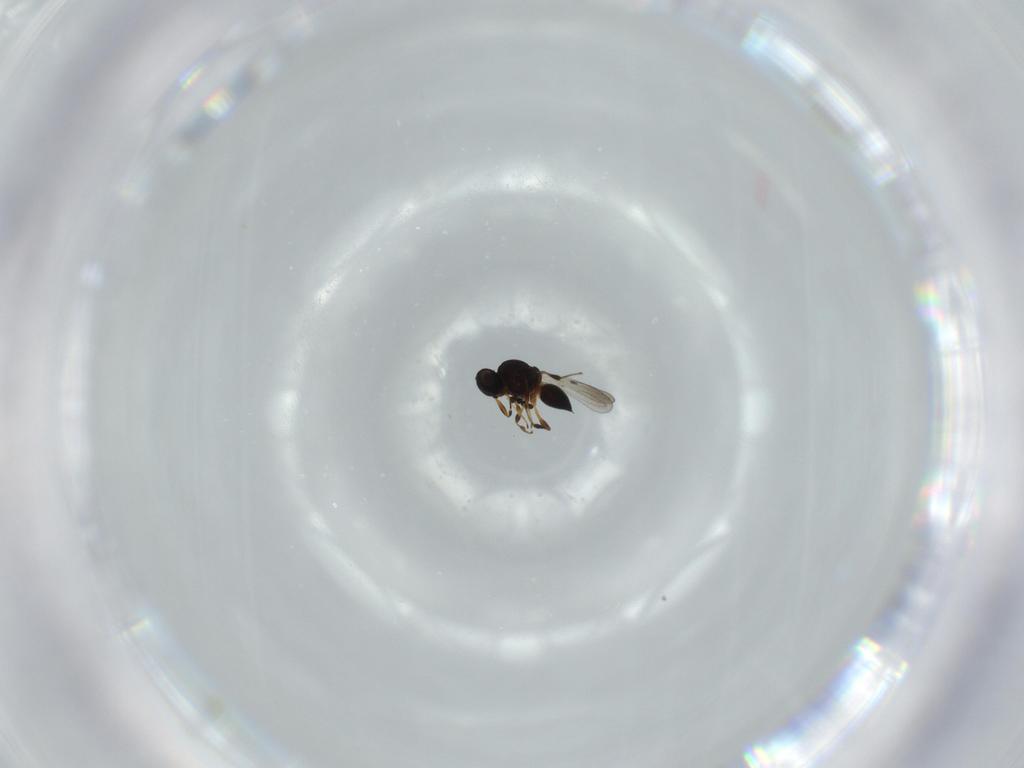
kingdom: Animalia
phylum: Arthropoda
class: Insecta
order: Hymenoptera
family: Platygastridae
